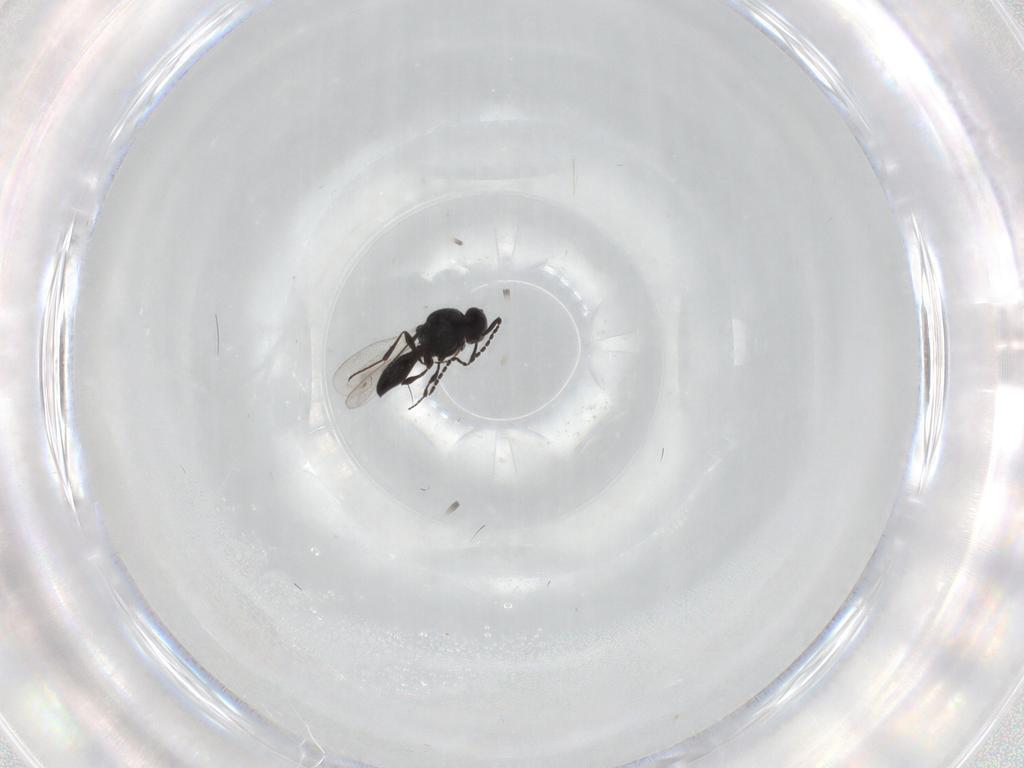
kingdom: Animalia
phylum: Arthropoda
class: Insecta
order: Hymenoptera
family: Platygastridae
